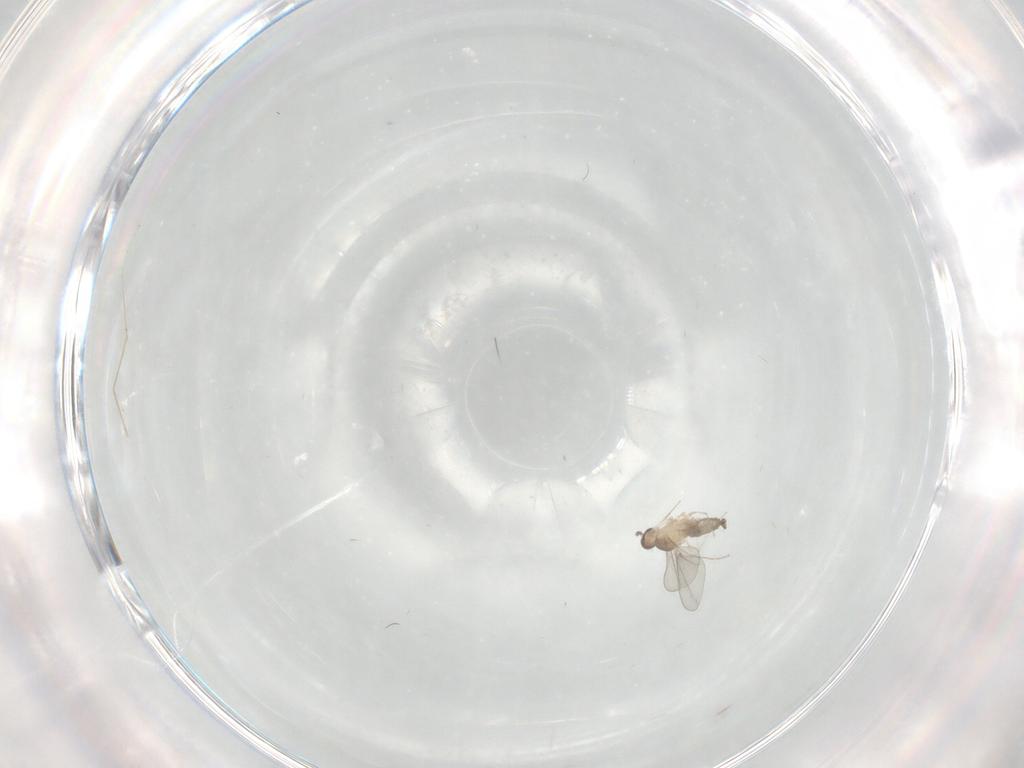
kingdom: Animalia
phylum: Arthropoda
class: Insecta
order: Diptera
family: Cecidomyiidae
